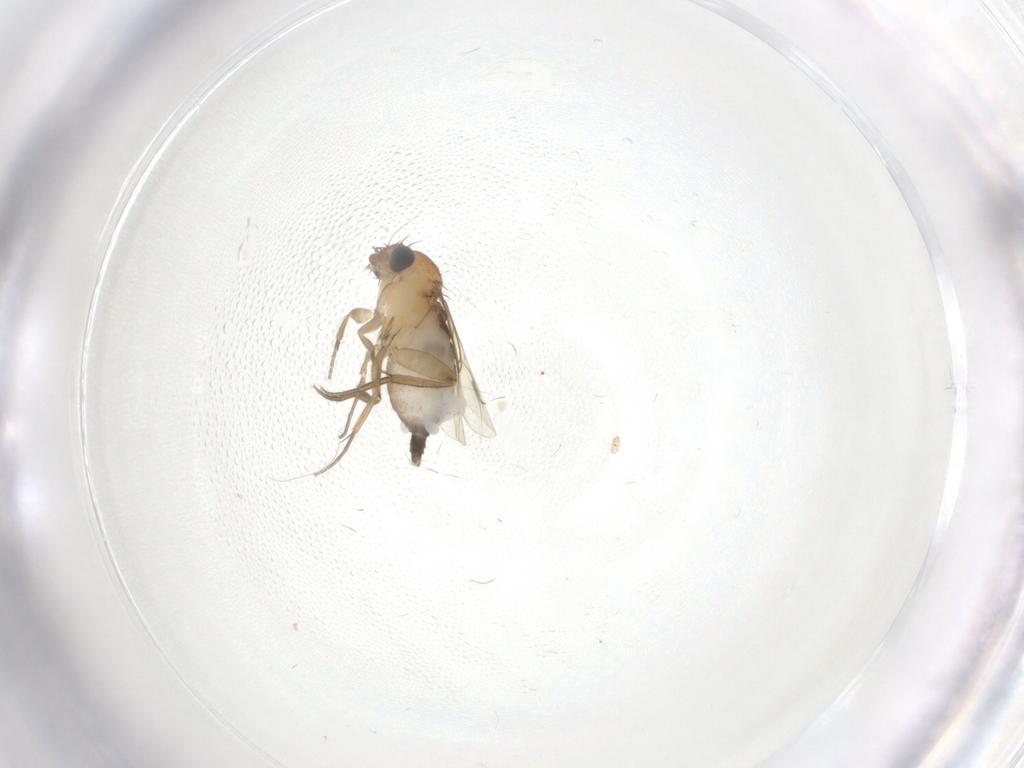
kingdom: Animalia
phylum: Arthropoda
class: Insecta
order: Diptera
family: Phoridae
